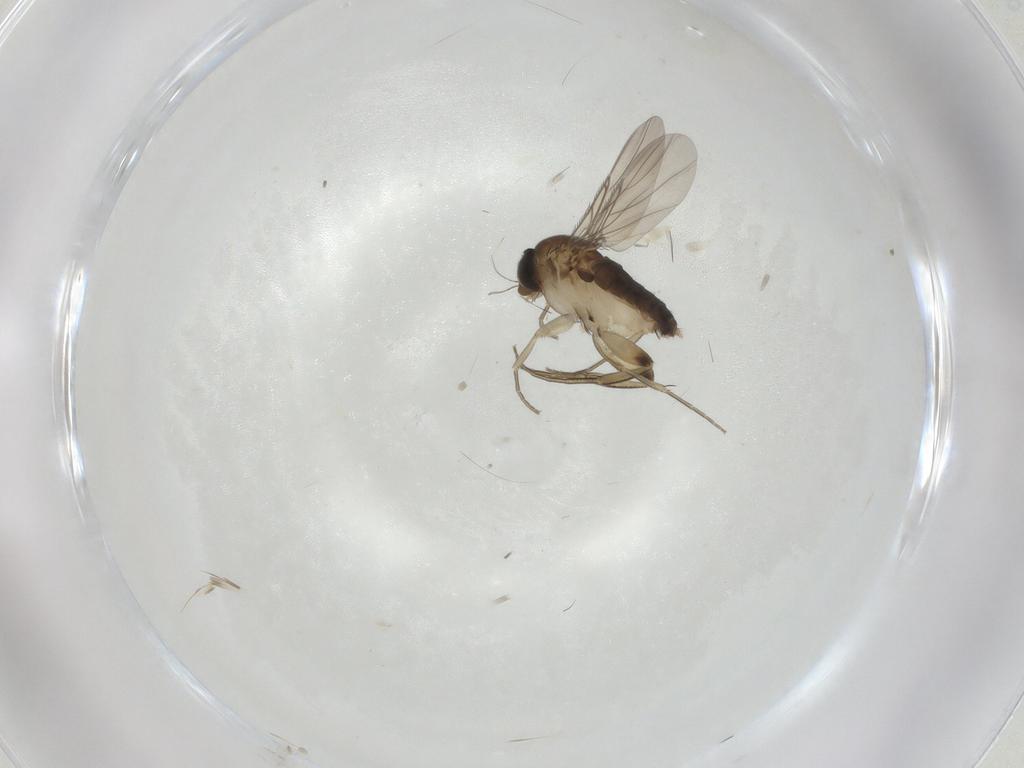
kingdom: Animalia
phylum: Arthropoda
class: Insecta
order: Diptera
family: Phoridae
